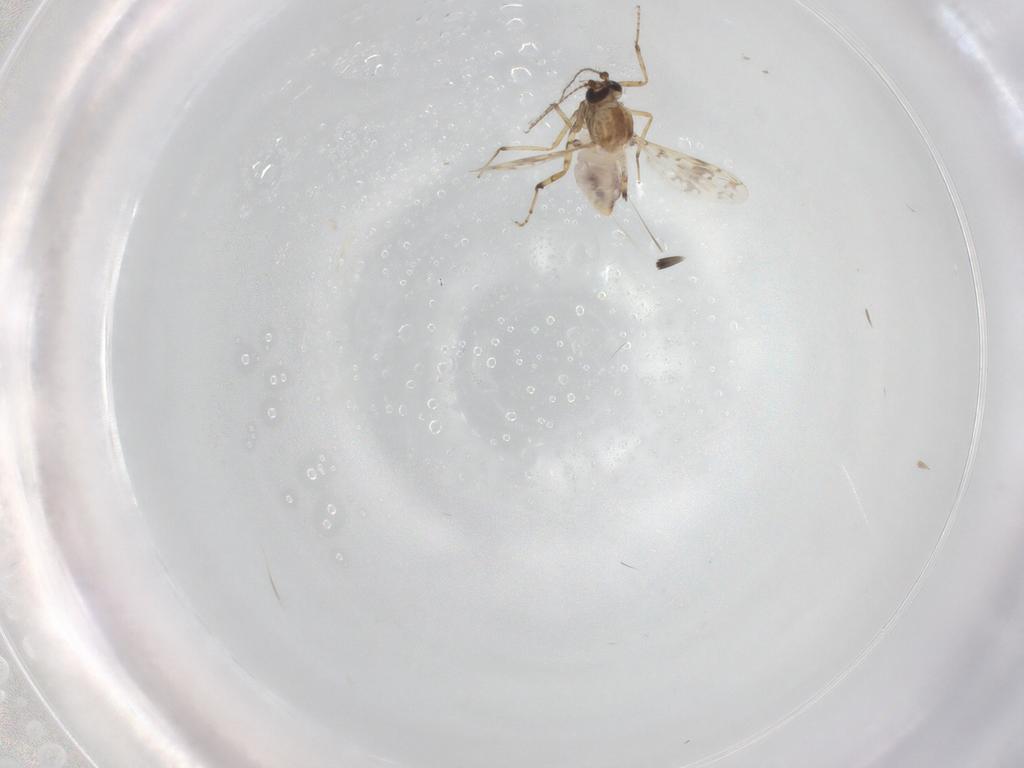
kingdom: Animalia
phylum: Arthropoda
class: Insecta
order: Diptera
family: Ceratopogonidae
